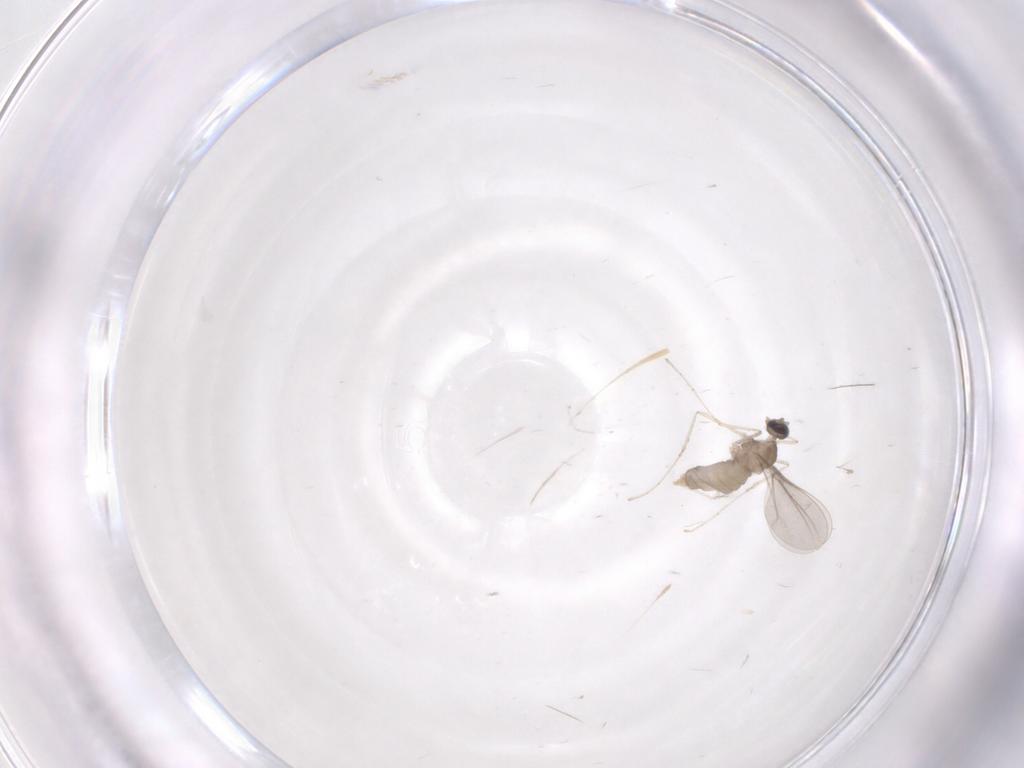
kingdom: Animalia
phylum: Arthropoda
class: Insecta
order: Diptera
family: Cecidomyiidae
